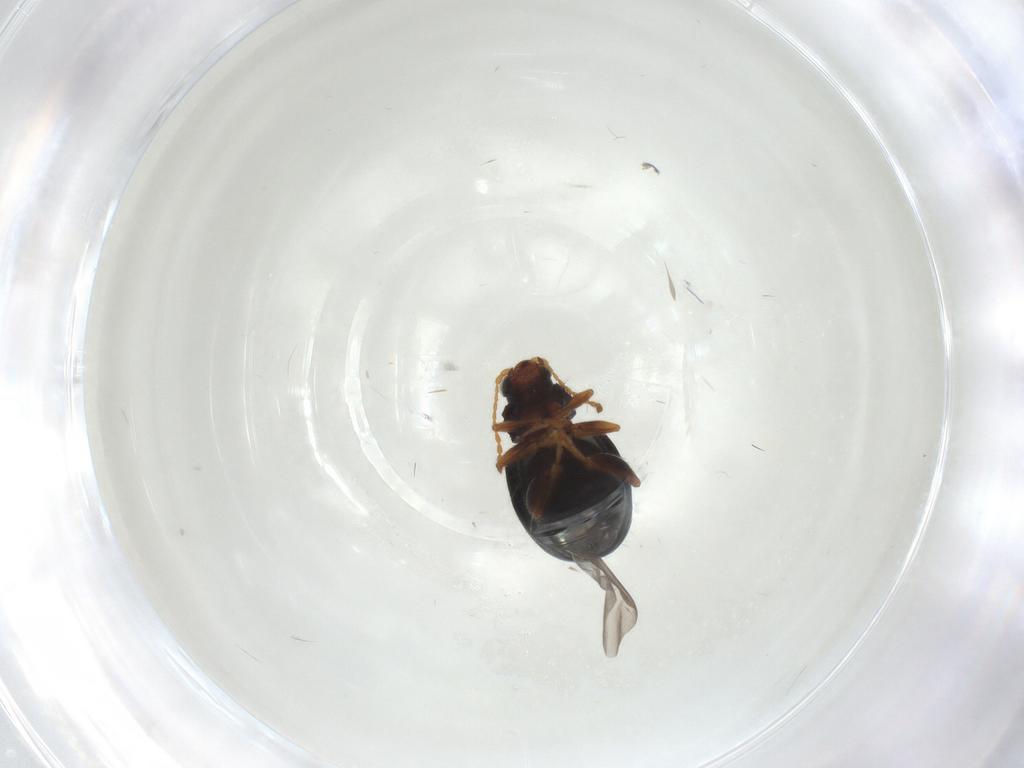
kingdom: Animalia
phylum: Arthropoda
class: Insecta
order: Coleoptera
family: Chrysomelidae
